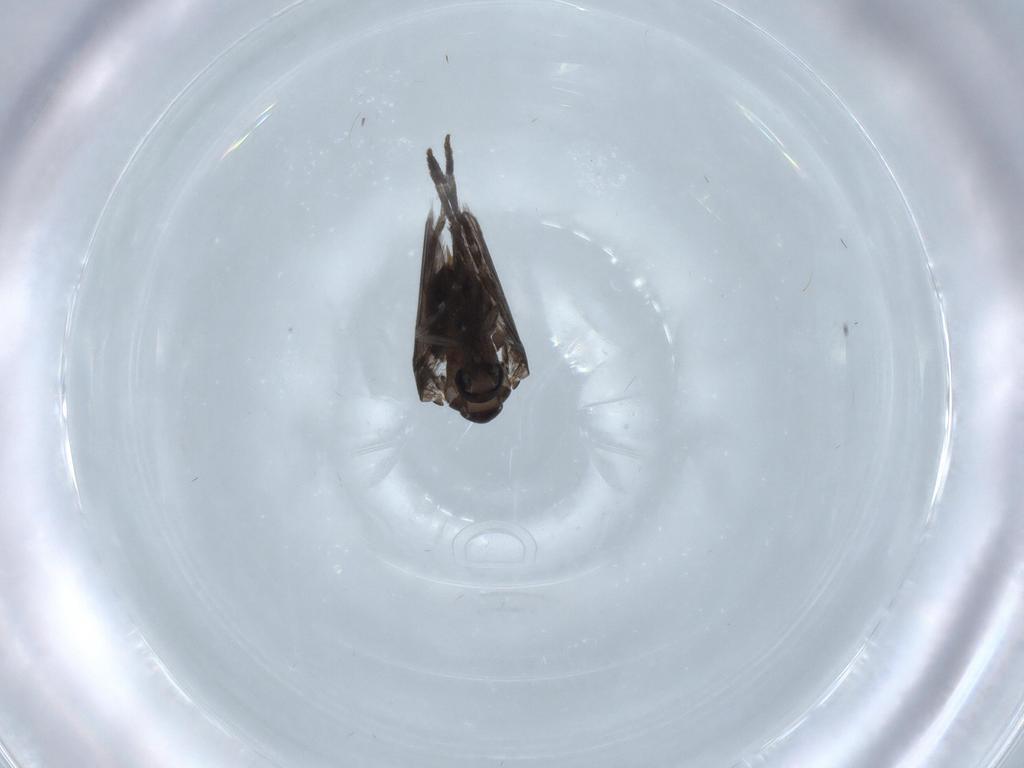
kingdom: Animalia
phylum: Arthropoda
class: Insecta
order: Diptera
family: Psychodidae
